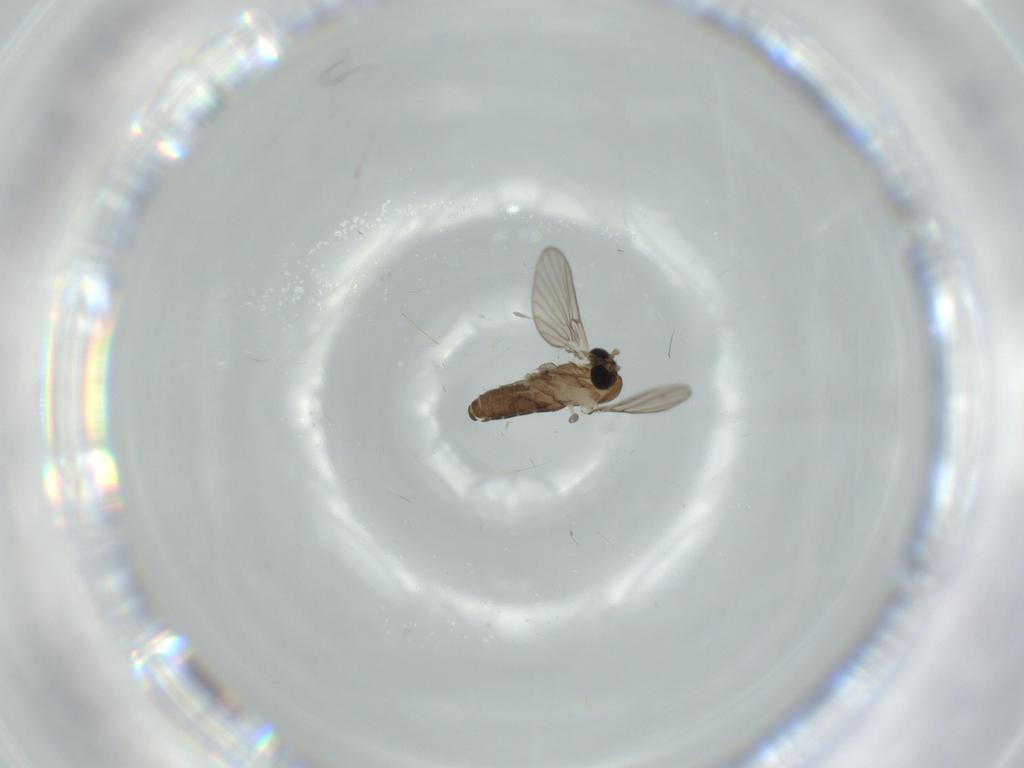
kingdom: Animalia
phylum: Arthropoda
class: Insecta
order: Diptera
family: Psychodidae
